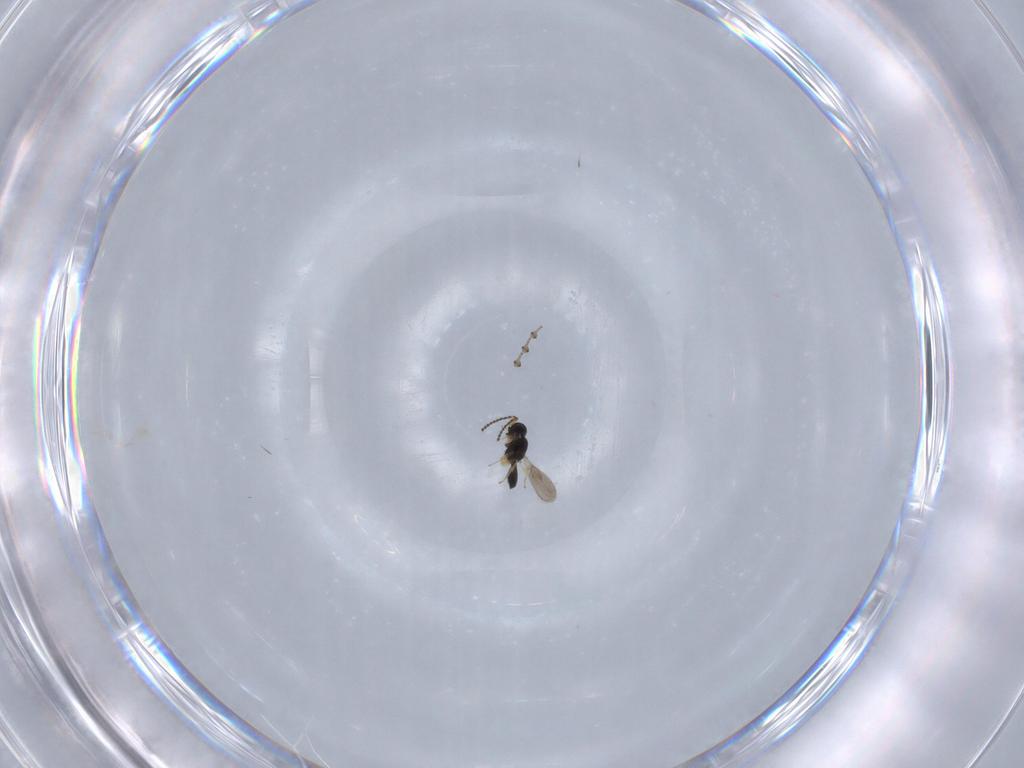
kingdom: Animalia
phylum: Arthropoda
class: Insecta
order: Hymenoptera
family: Scelionidae
